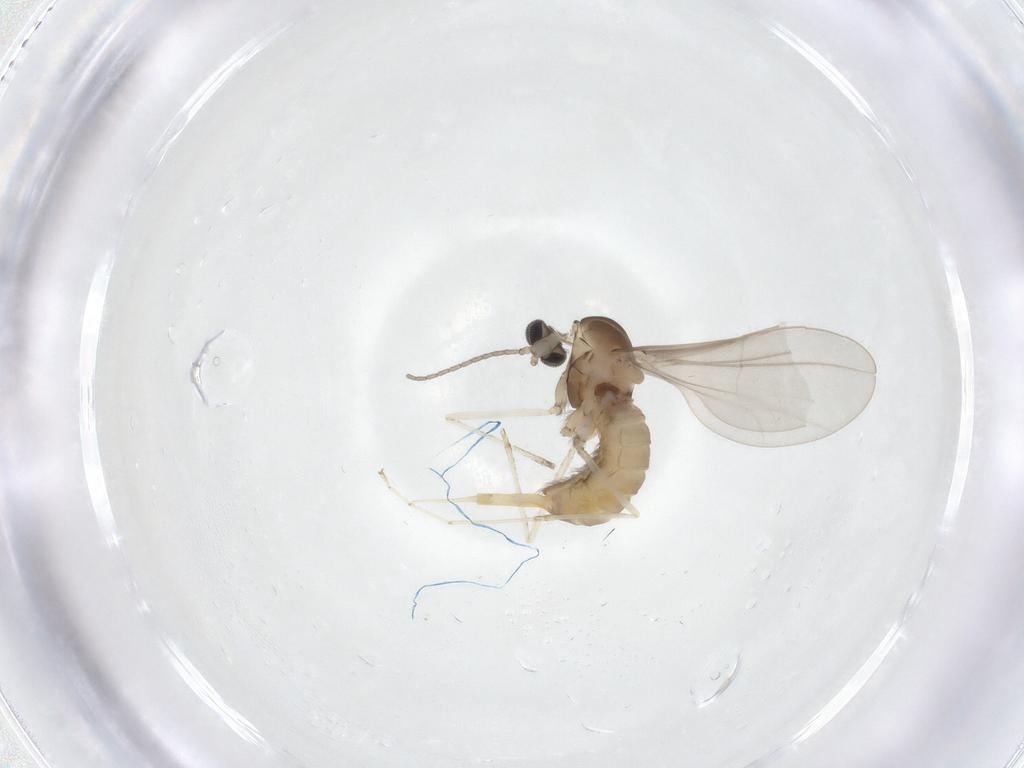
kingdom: Animalia
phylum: Arthropoda
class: Insecta
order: Diptera
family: Cecidomyiidae
